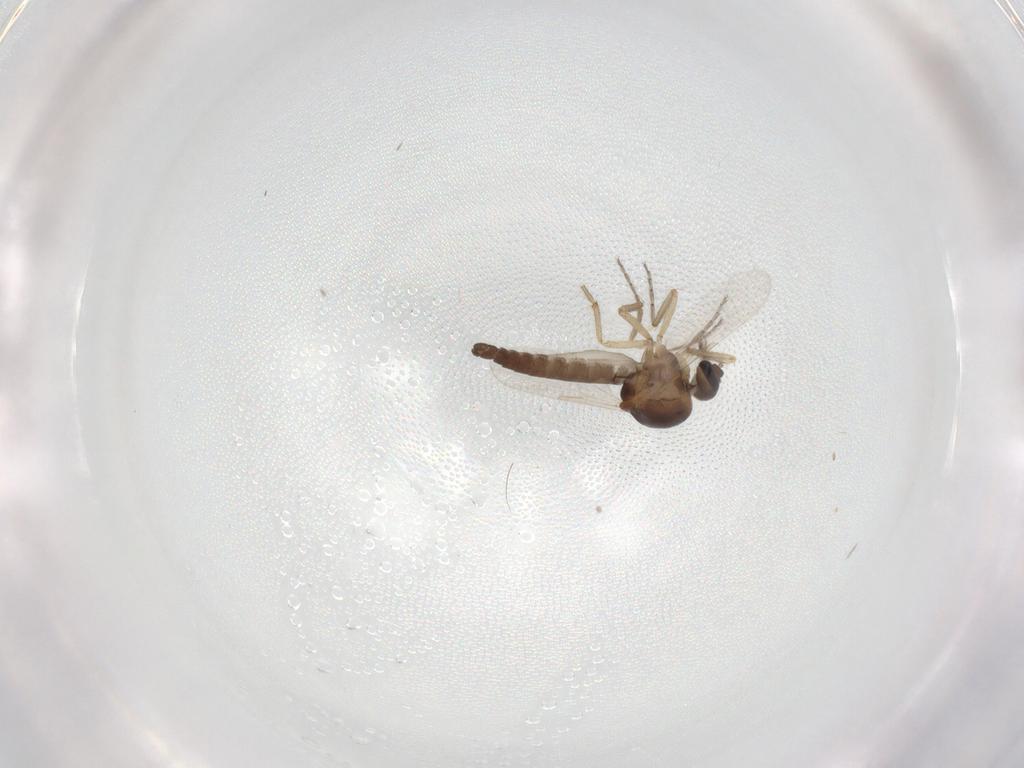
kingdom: Animalia
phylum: Arthropoda
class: Insecta
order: Diptera
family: Ceratopogonidae
